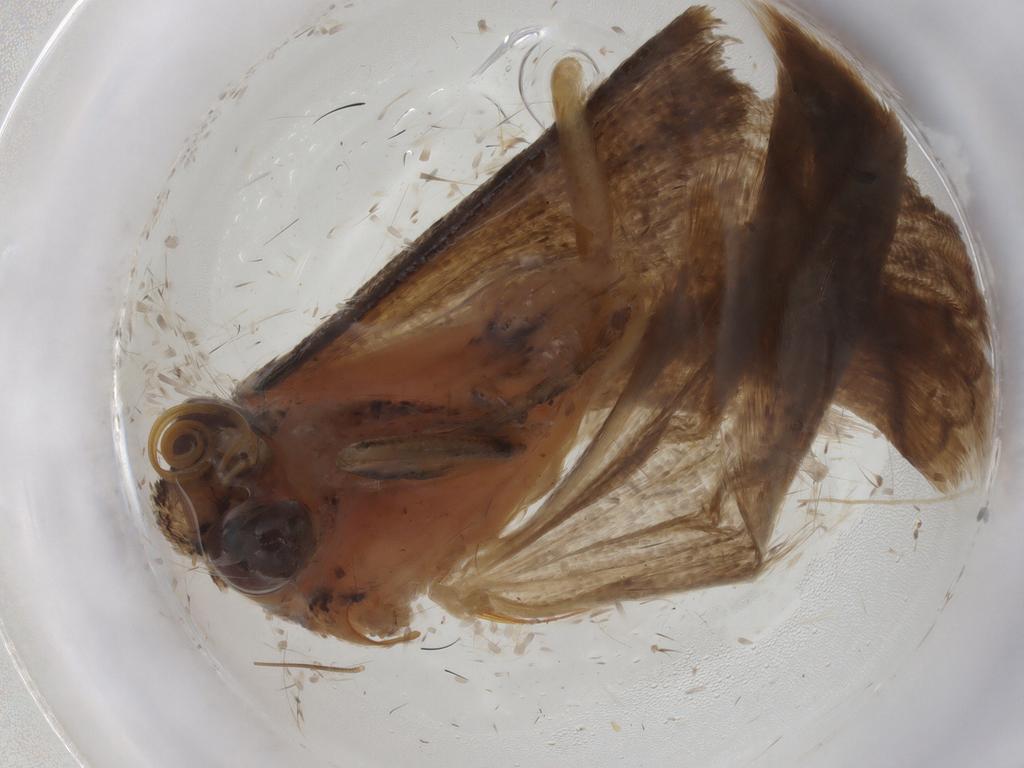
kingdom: Animalia
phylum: Arthropoda
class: Insecta
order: Lepidoptera
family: Erebidae
